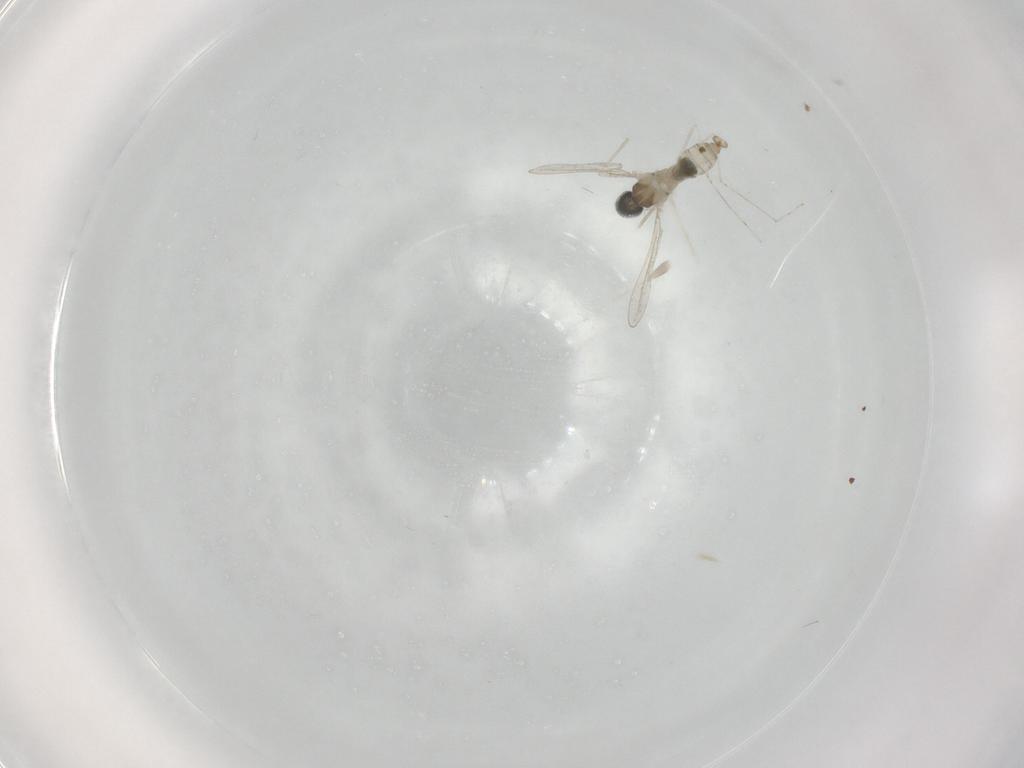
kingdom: Animalia
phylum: Arthropoda
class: Insecta
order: Diptera
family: Cecidomyiidae
